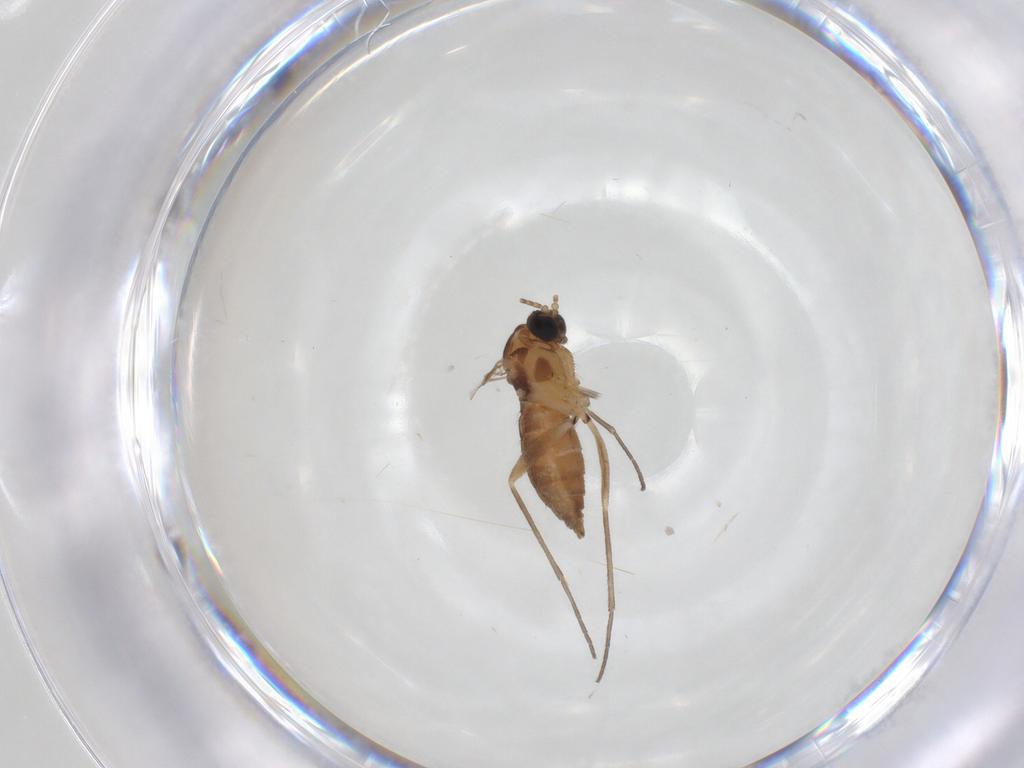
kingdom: Animalia
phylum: Arthropoda
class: Insecta
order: Diptera
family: Sciaridae
